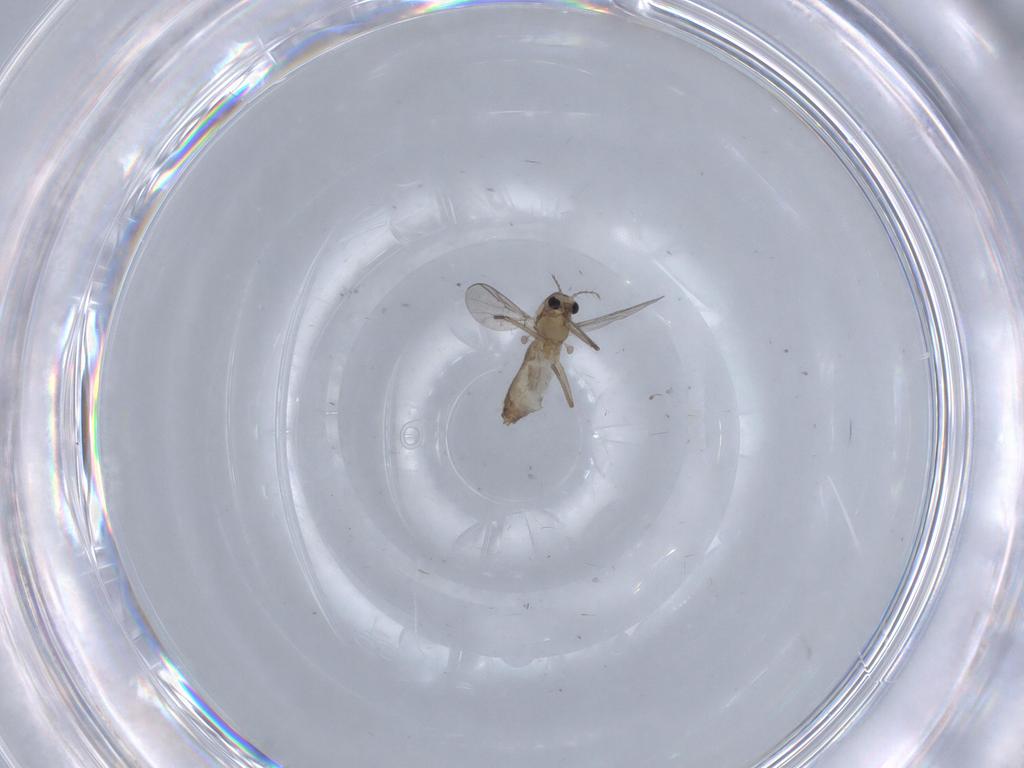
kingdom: Animalia
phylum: Arthropoda
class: Insecta
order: Diptera
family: Chironomidae
